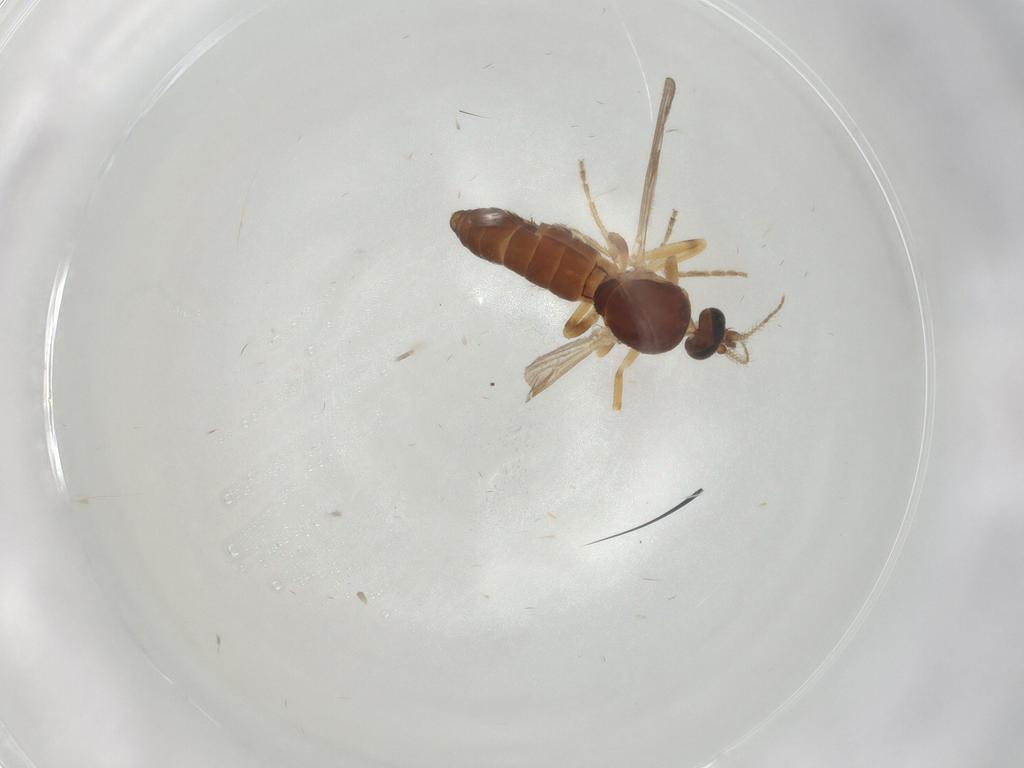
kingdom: Animalia
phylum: Arthropoda
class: Insecta
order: Diptera
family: Ceratopogonidae
